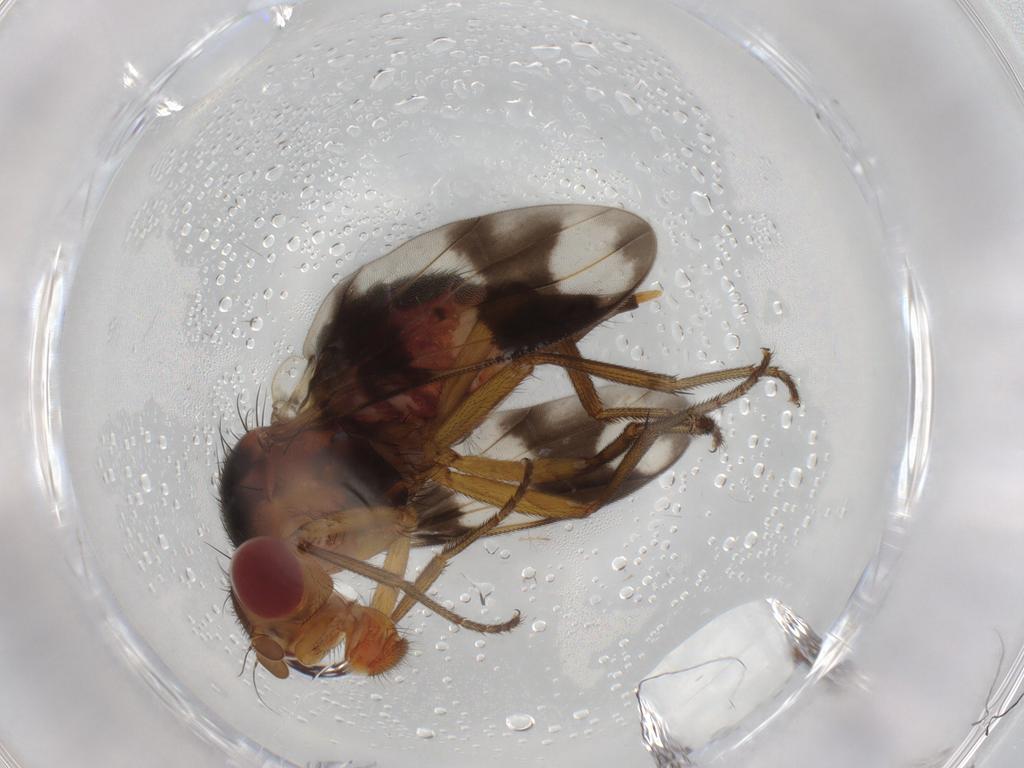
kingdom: Animalia
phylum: Arthropoda
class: Insecta
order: Diptera
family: Richardiidae
